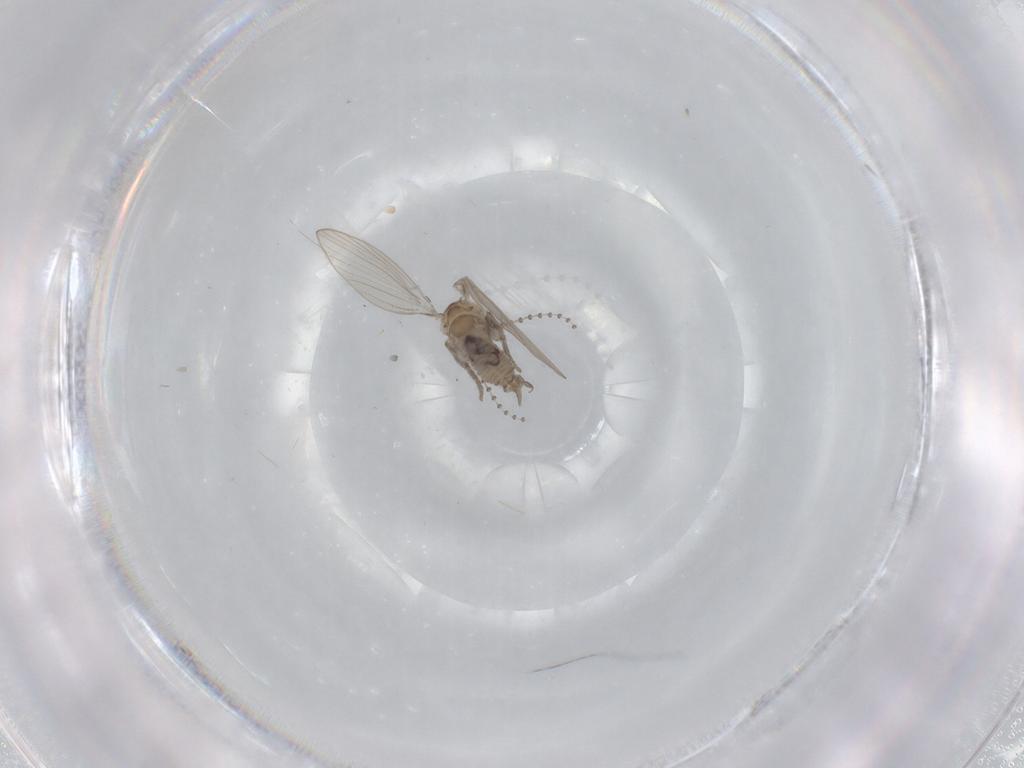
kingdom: Animalia
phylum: Arthropoda
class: Insecta
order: Diptera
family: Psychodidae
